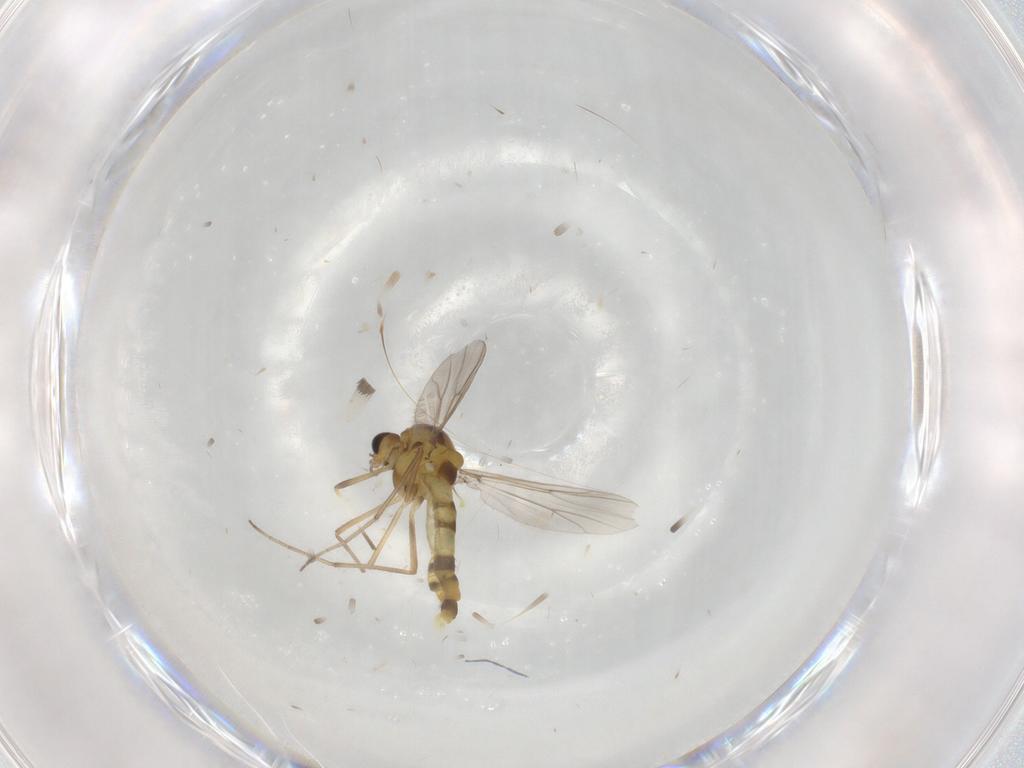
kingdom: Animalia
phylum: Arthropoda
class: Insecta
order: Diptera
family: Chironomidae
